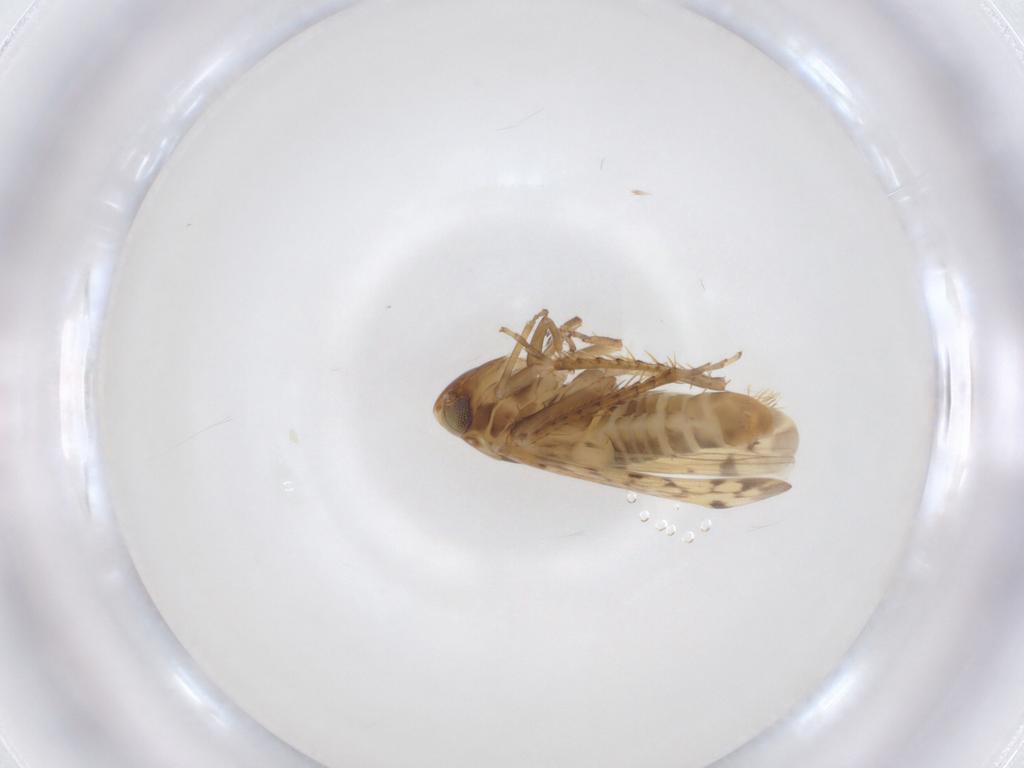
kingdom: Animalia
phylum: Arthropoda
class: Insecta
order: Hemiptera
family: Cicadellidae
